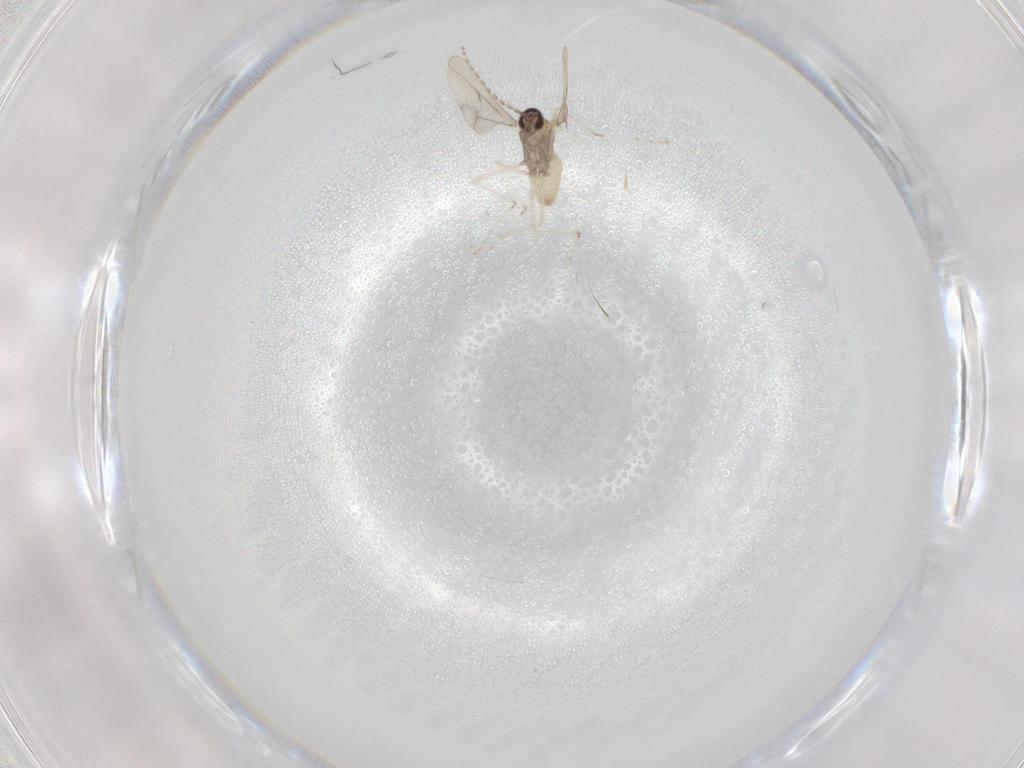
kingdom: Animalia
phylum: Arthropoda
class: Insecta
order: Diptera
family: Cecidomyiidae
